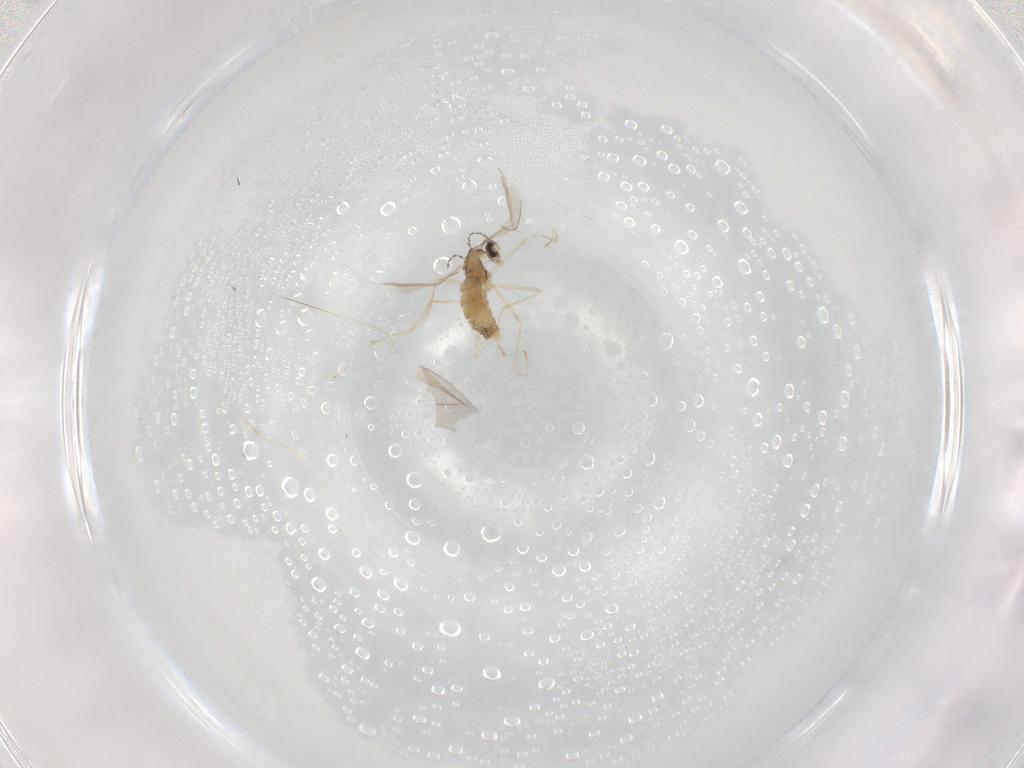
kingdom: Animalia
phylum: Arthropoda
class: Insecta
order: Diptera
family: Cecidomyiidae
